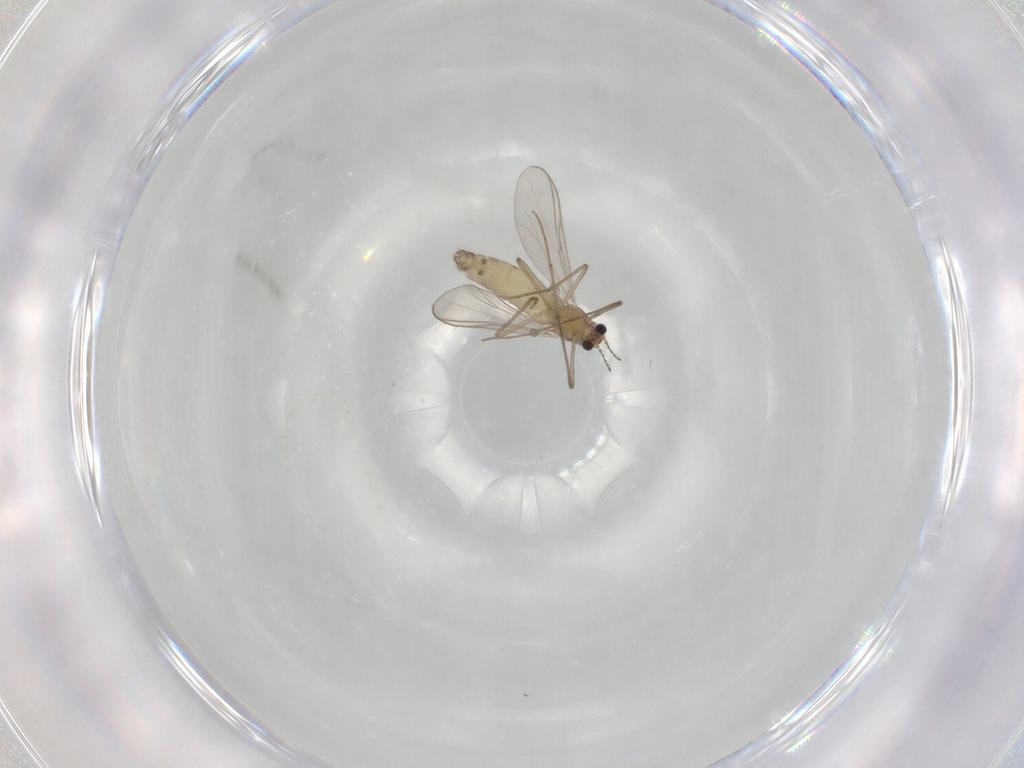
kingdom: Animalia
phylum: Arthropoda
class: Insecta
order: Diptera
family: Chironomidae
